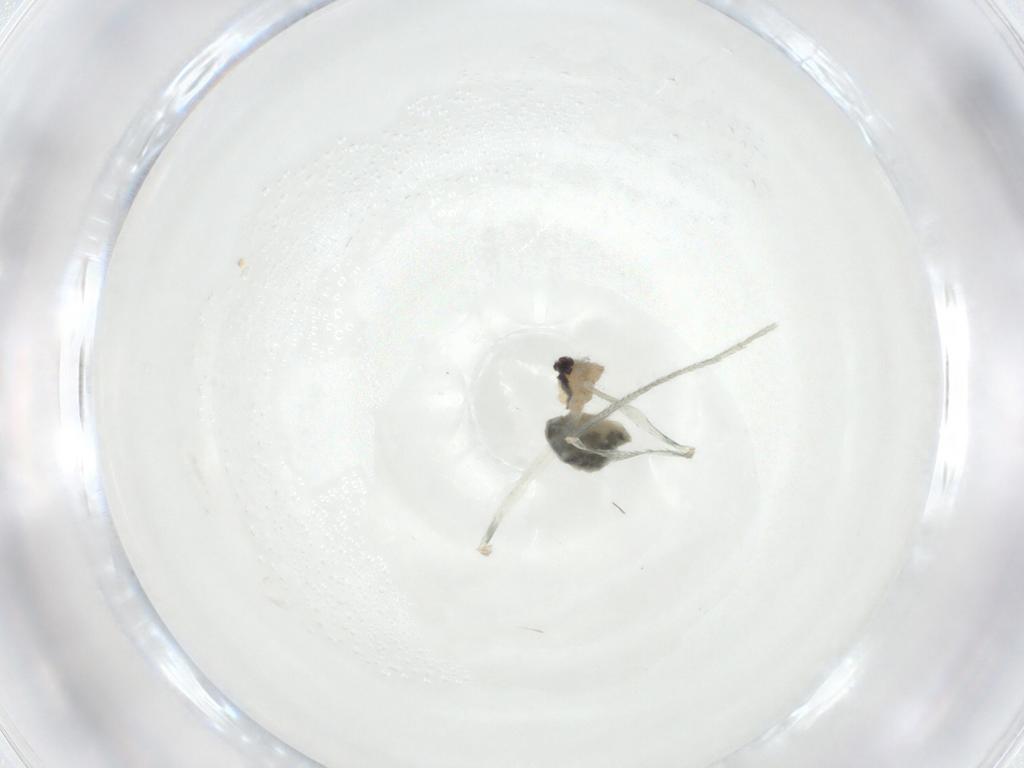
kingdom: Animalia
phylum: Arthropoda
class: Arachnida
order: Araneae
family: Pholcidae
